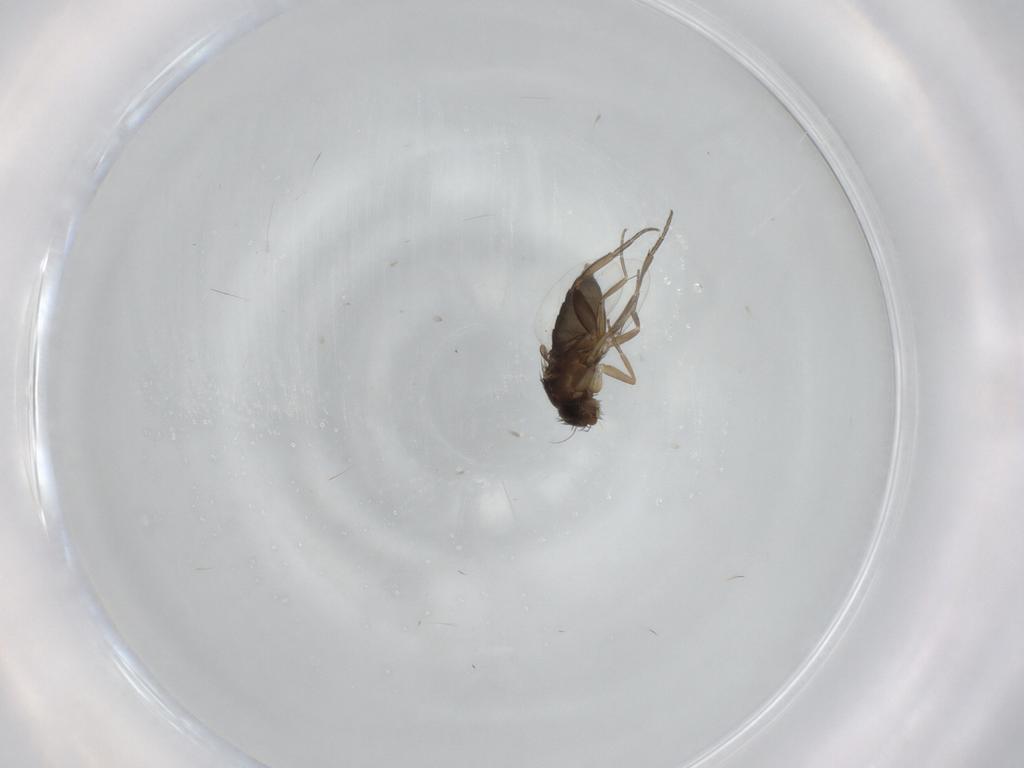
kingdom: Animalia
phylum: Arthropoda
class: Insecta
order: Diptera
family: Phoridae
